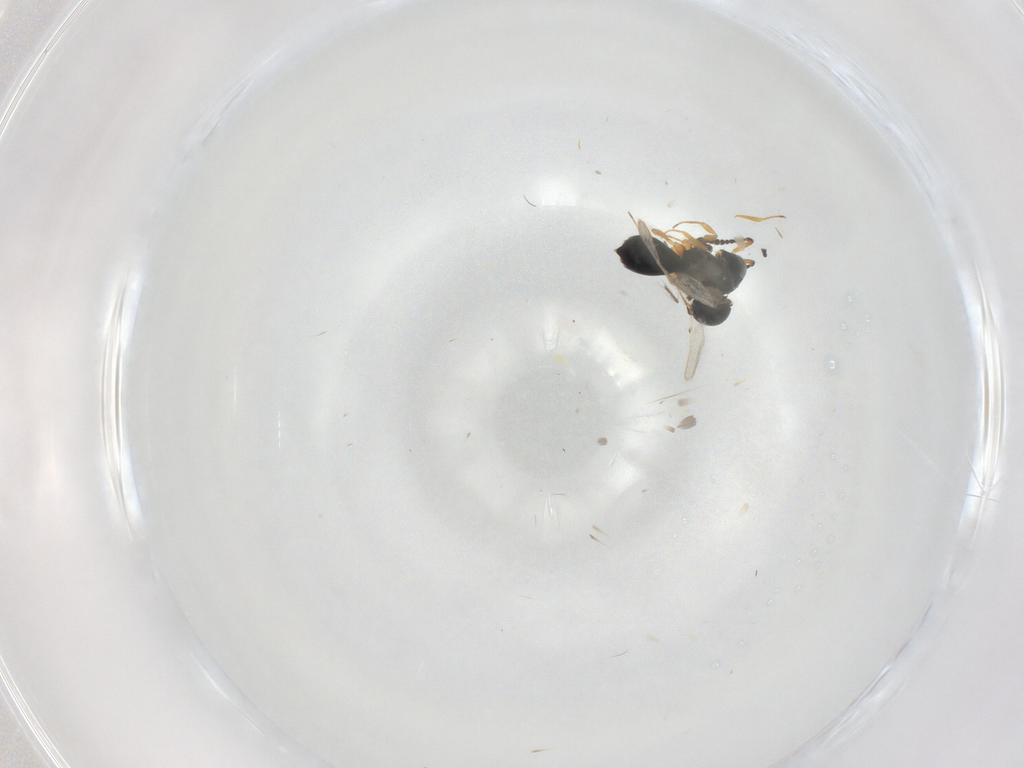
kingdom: Animalia
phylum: Arthropoda
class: Insecta
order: Hymenoptera
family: Scelionidae
